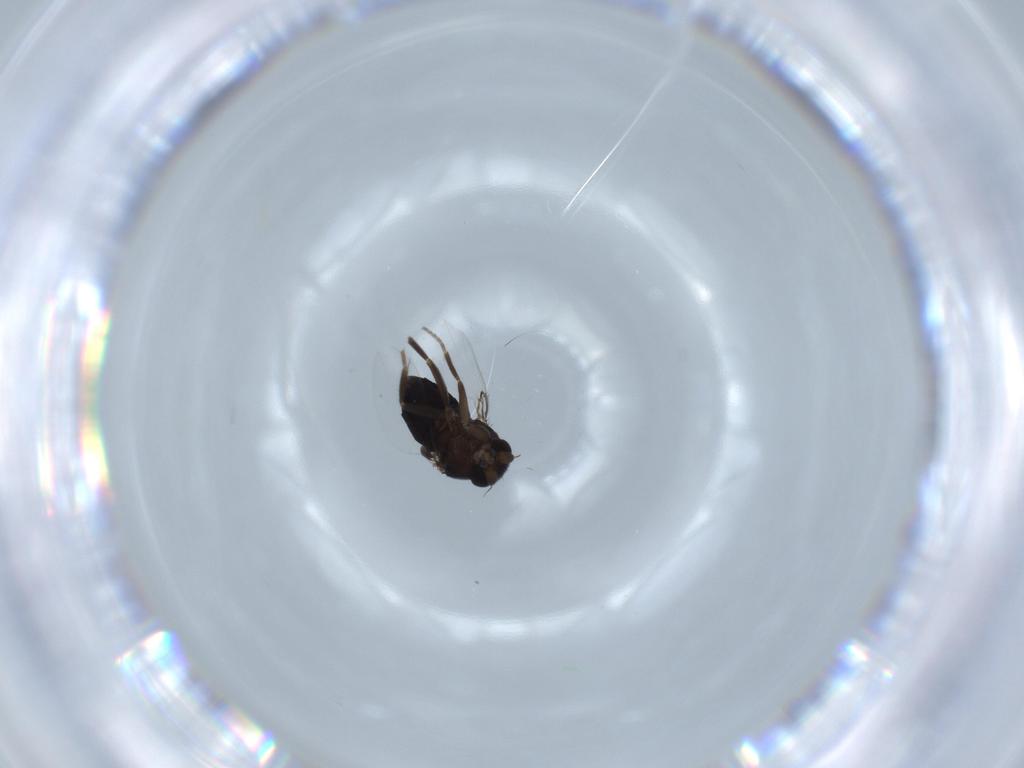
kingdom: Animalia
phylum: Arthropoda
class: Insecta
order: Diptera
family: Phoridae
